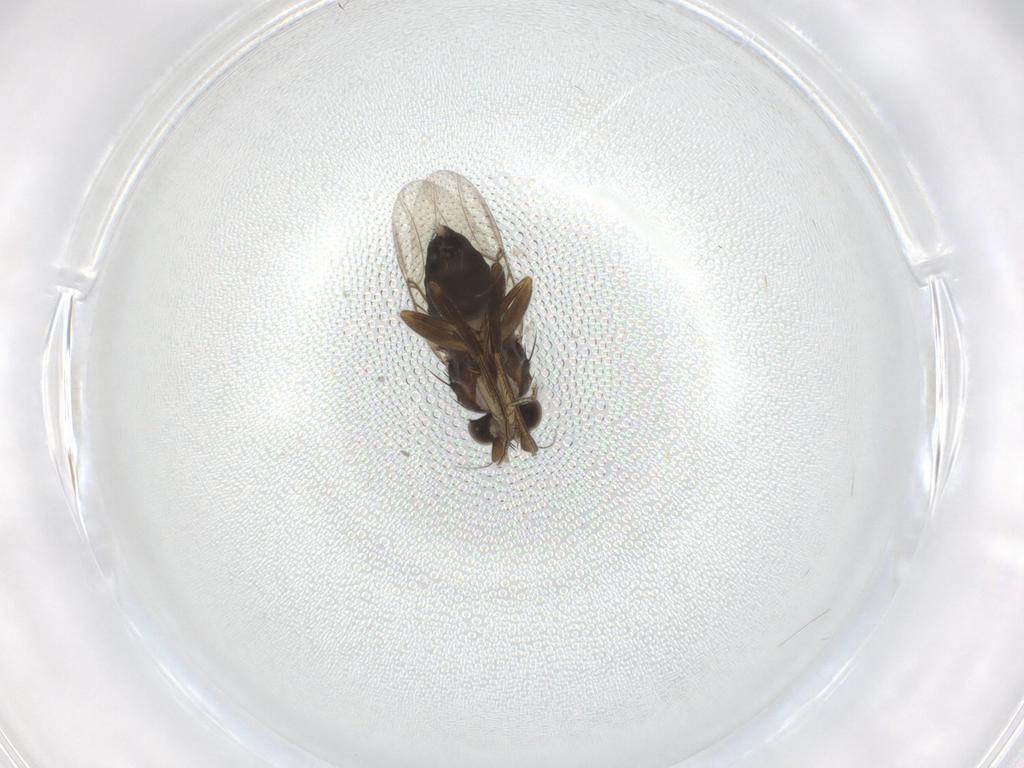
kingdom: Animalia
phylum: Arthropoda
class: Insecta
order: Diptera
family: Phoridae
